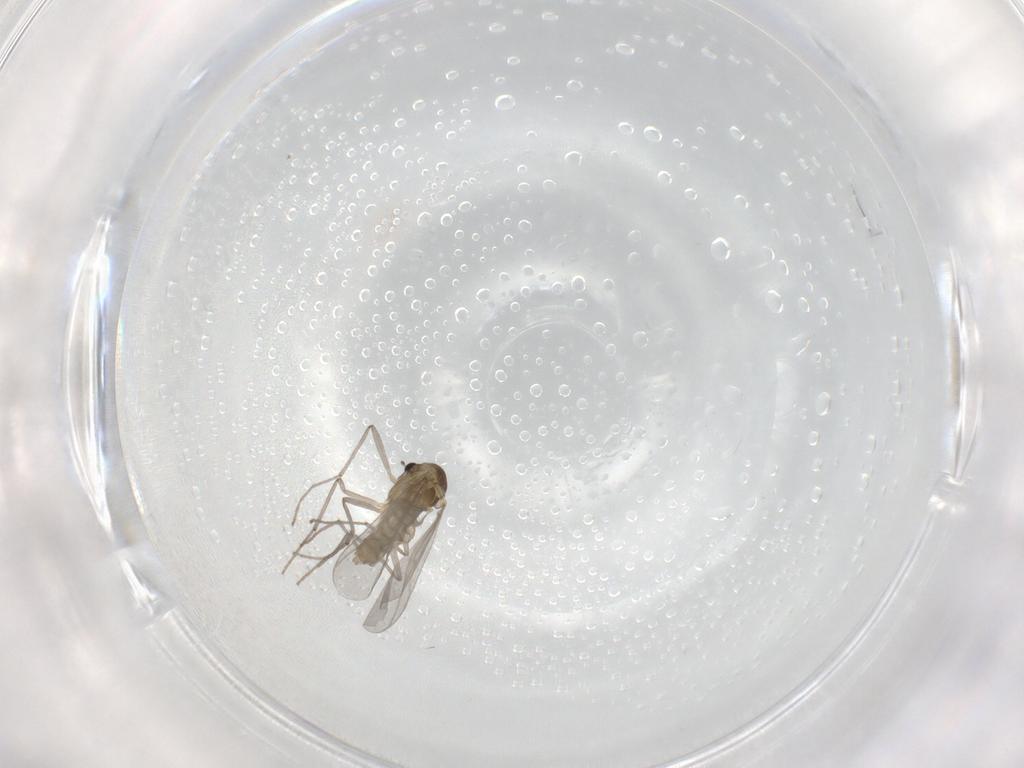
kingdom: Animalia
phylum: Arthropoda
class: Insecta
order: Diptera
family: Chironomidae
